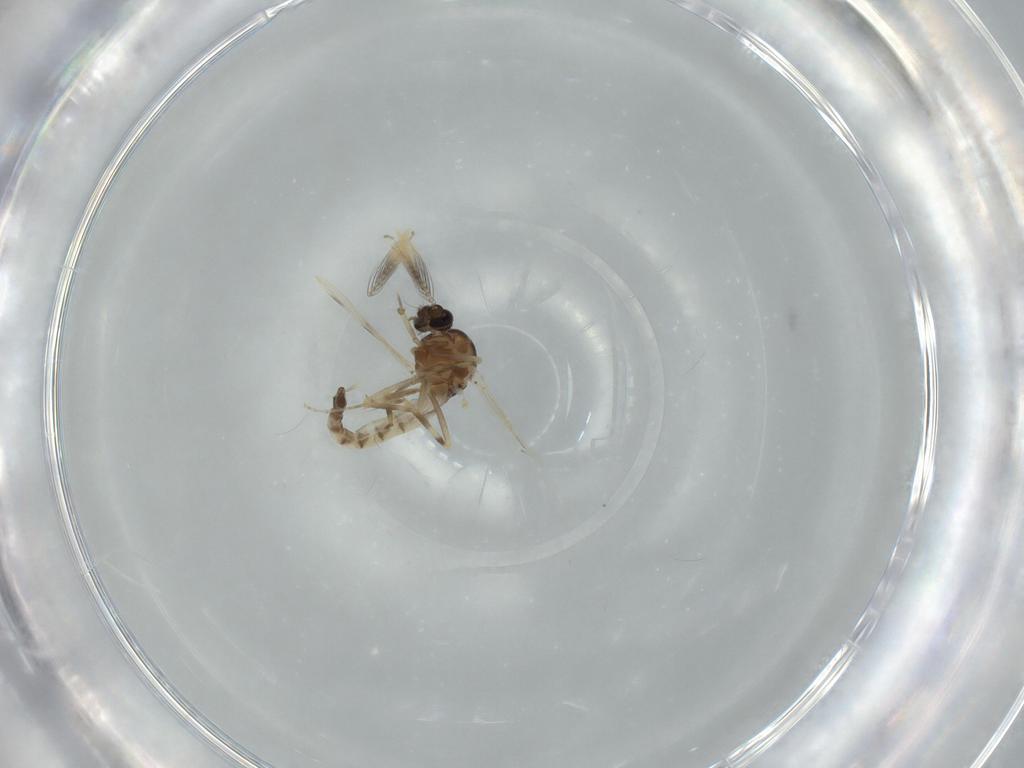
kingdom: Animalia
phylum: Arthropoda
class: Insecta
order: Diptera
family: Ceratopogonidae
